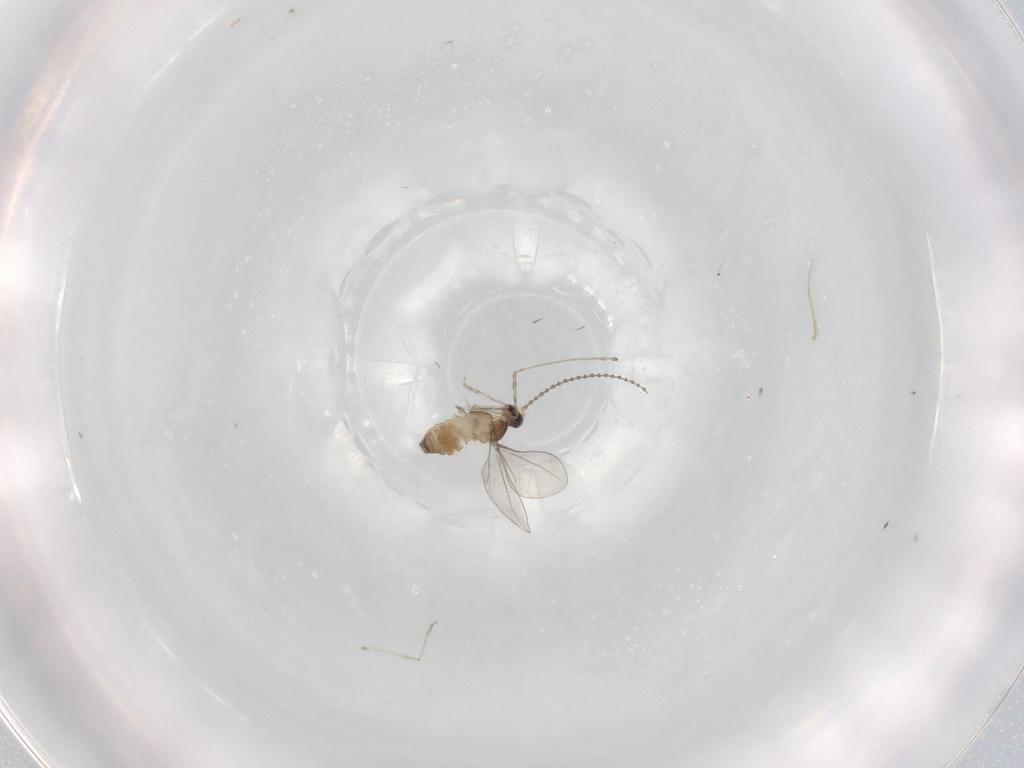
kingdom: Animalia
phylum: Arthropoda
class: Insecta
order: Diptera
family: Cecidomyiidae
